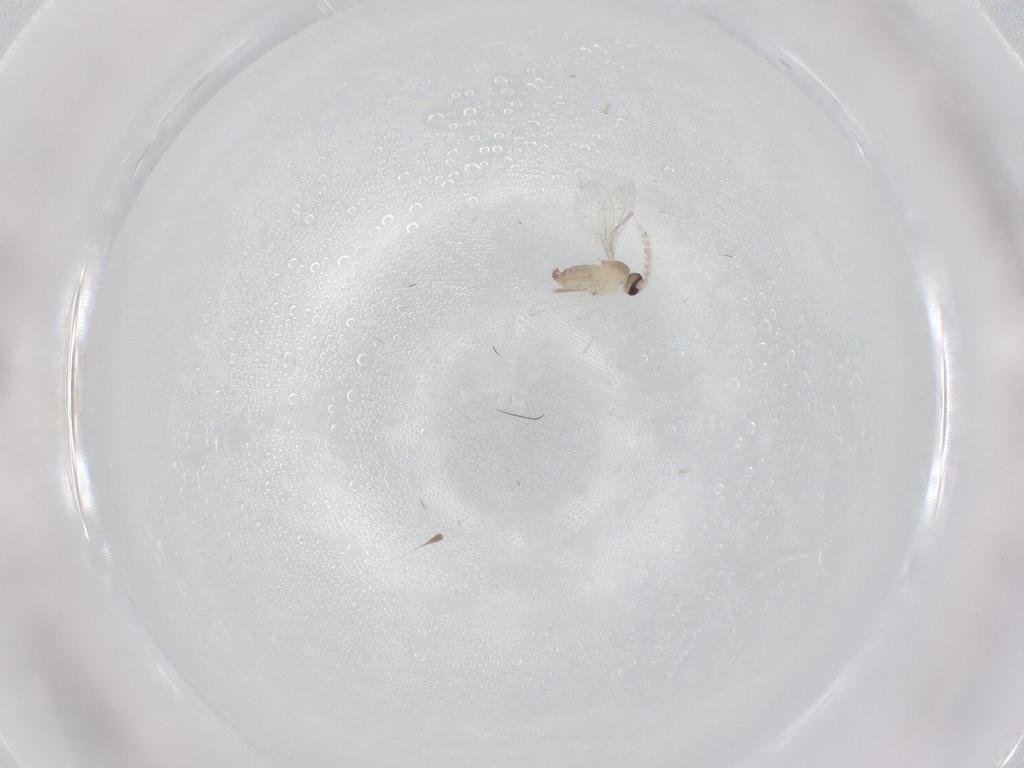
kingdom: Animalia
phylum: Arthropoda
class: Insecta
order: Diptera
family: Cecidomyiidae
